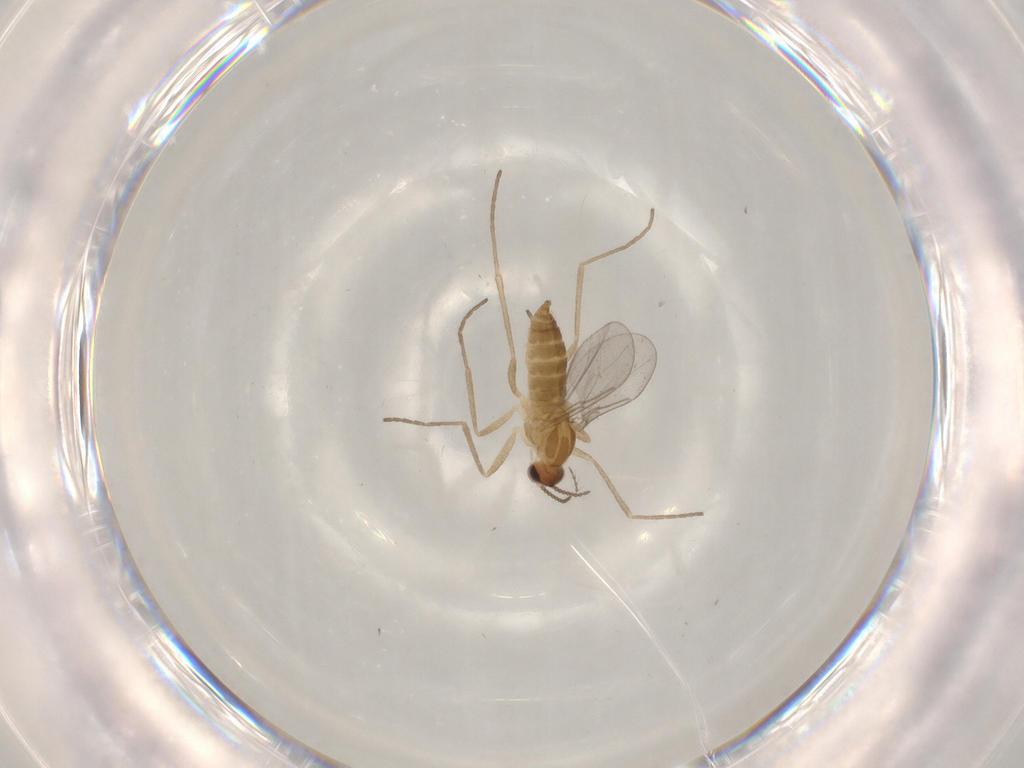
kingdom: Animalia
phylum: Arthropoda
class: Insecta
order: Diptera
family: Cecidomyiidae
